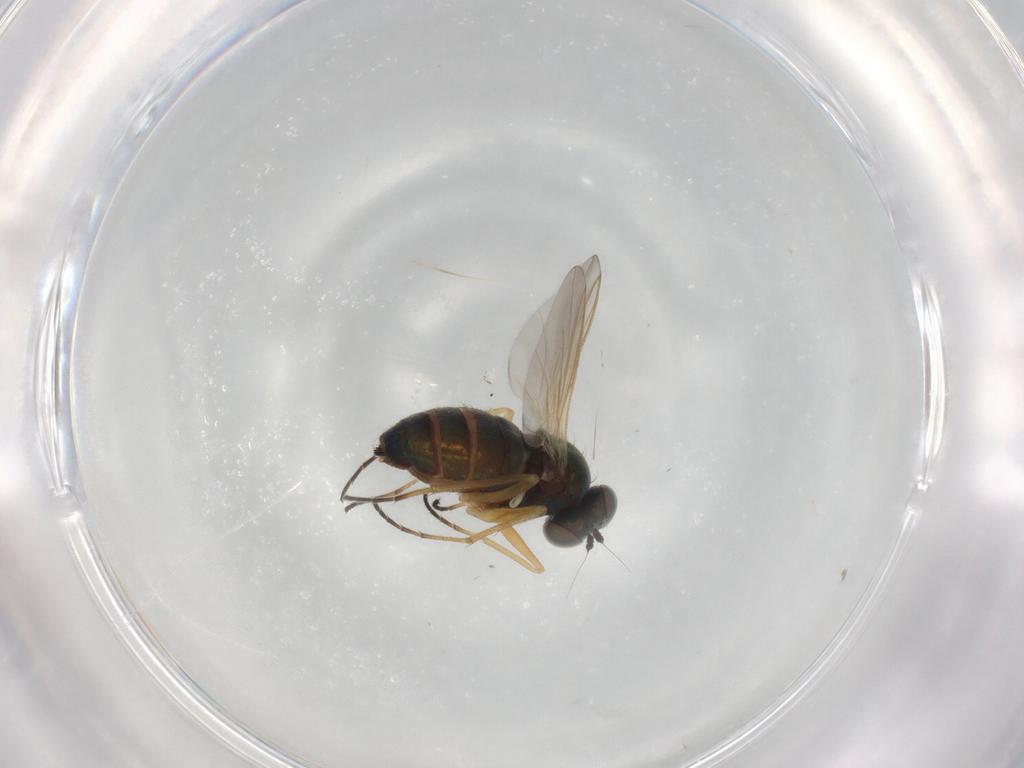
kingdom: Animalia
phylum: Arthropoda
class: Insecta
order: Diptera
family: Dolichopodidae
